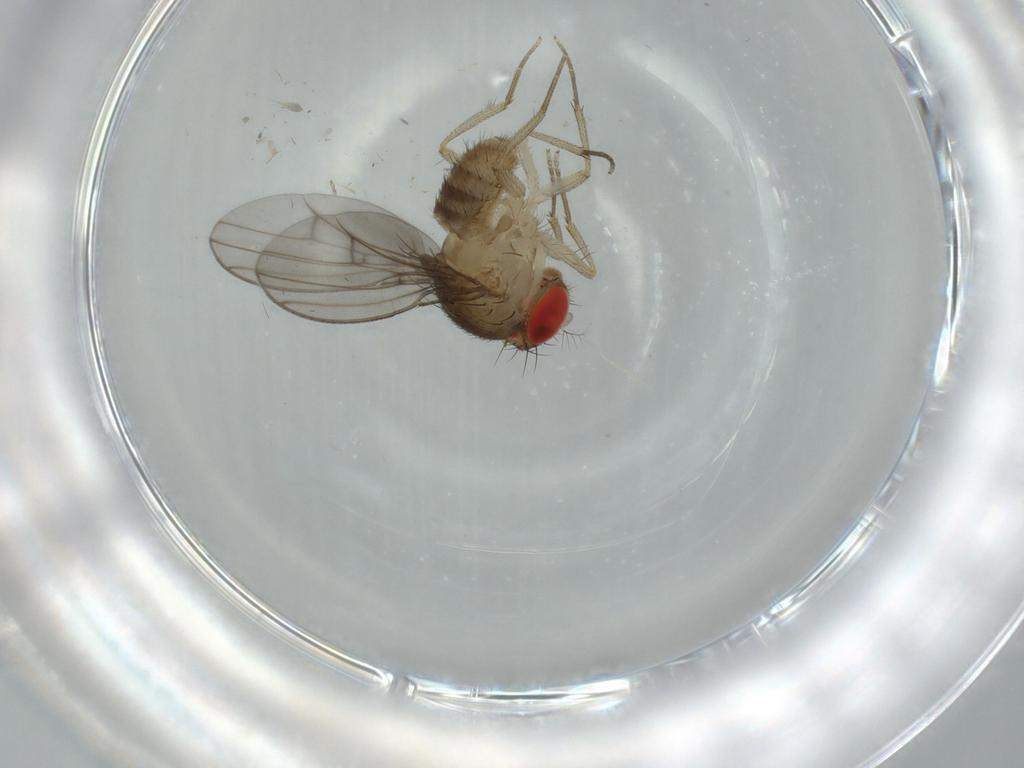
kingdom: Animalia
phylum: Arthropoda
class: Insecta
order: Diptera
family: Drosophilidae
